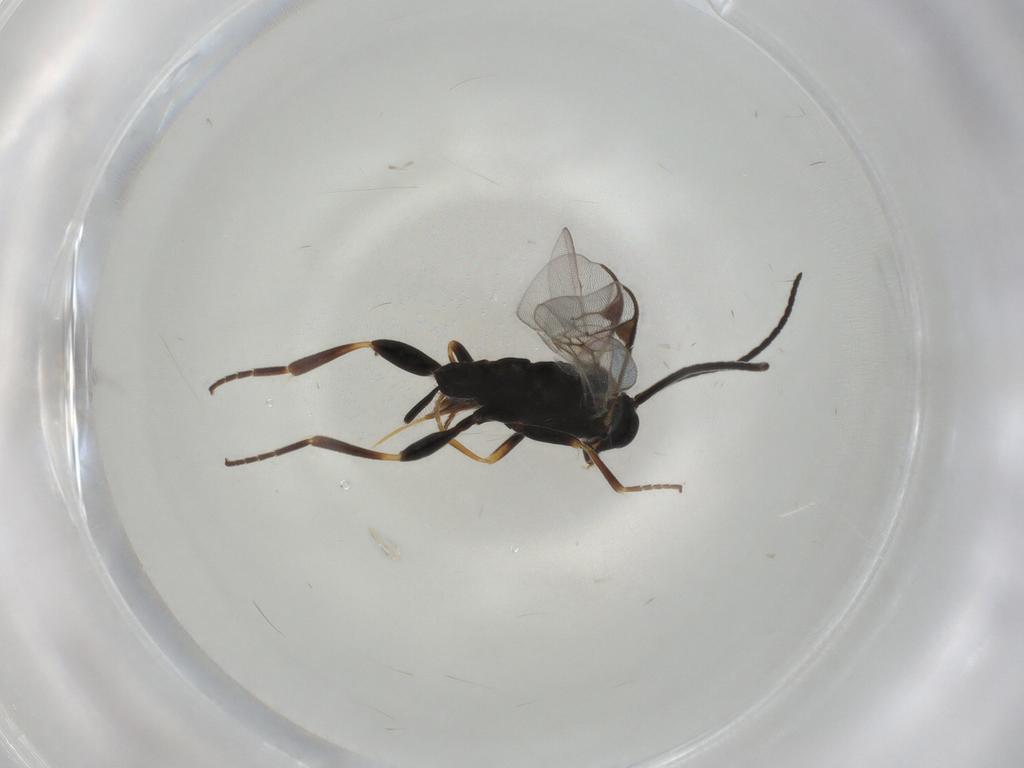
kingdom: Animalia
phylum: Arthropoda
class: Insecta
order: Hymenoptera
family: Braconidae
